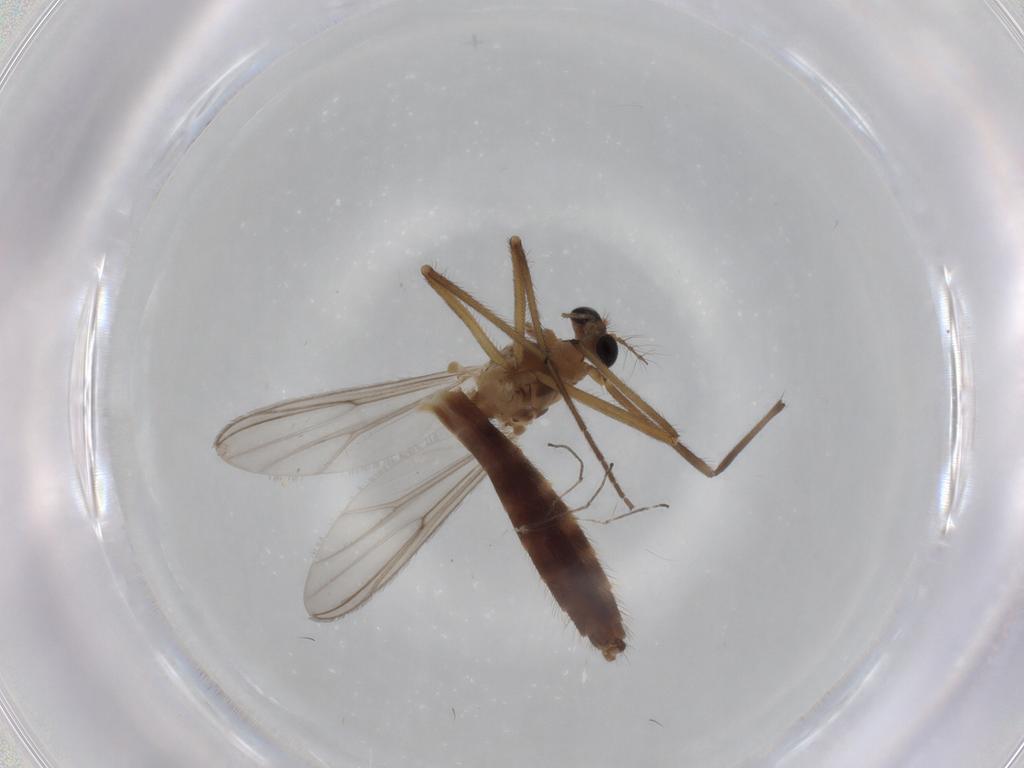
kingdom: Animalia
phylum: Arthropoda
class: Insecta
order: Diptera
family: Chironomidae
